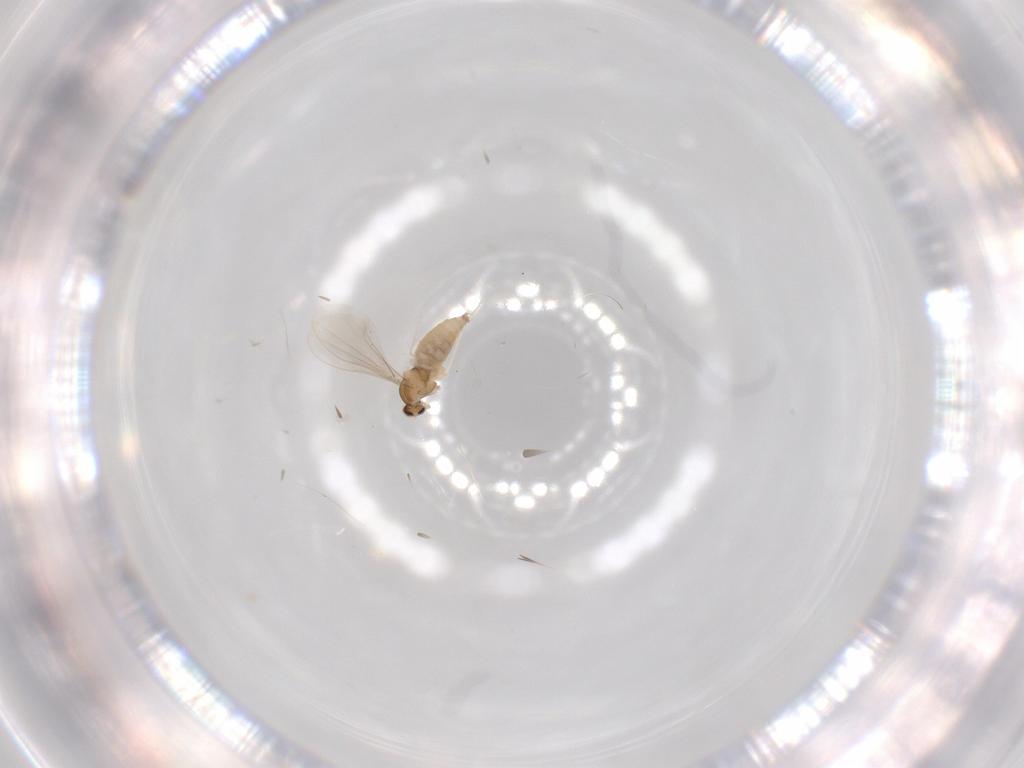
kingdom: Animalia
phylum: Arthropoda
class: Insecta
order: Diptera
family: Cecidomyiidae
